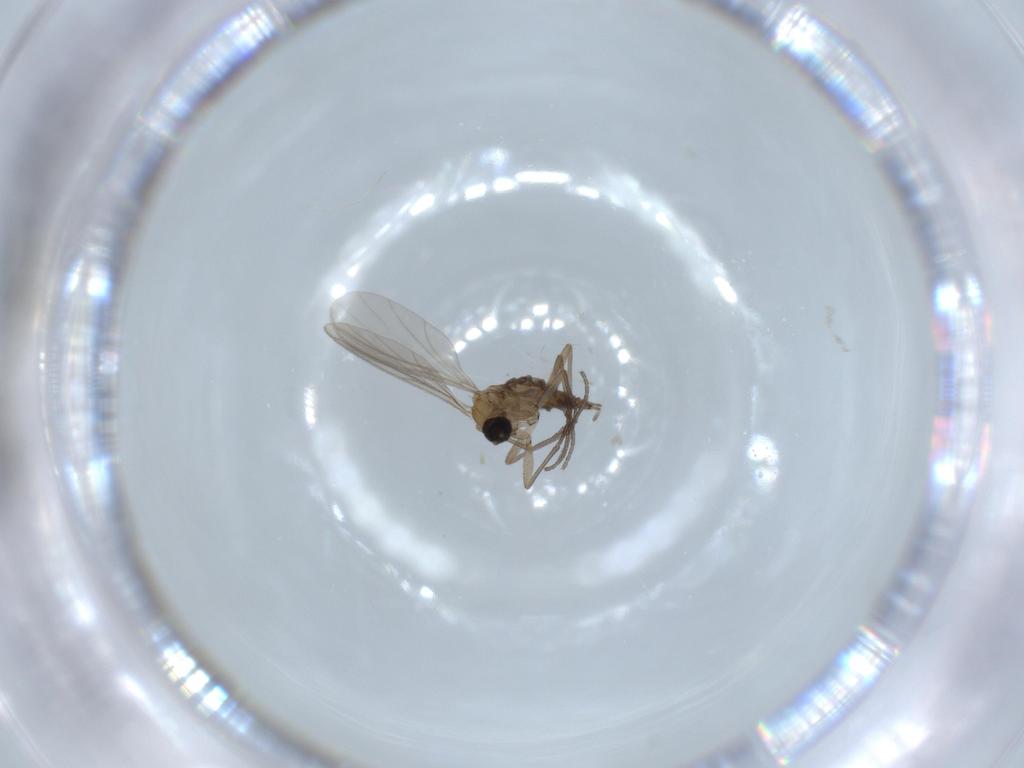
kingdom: Animalia
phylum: Arthropoda
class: Insecta
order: Diptera
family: Sciaridae
